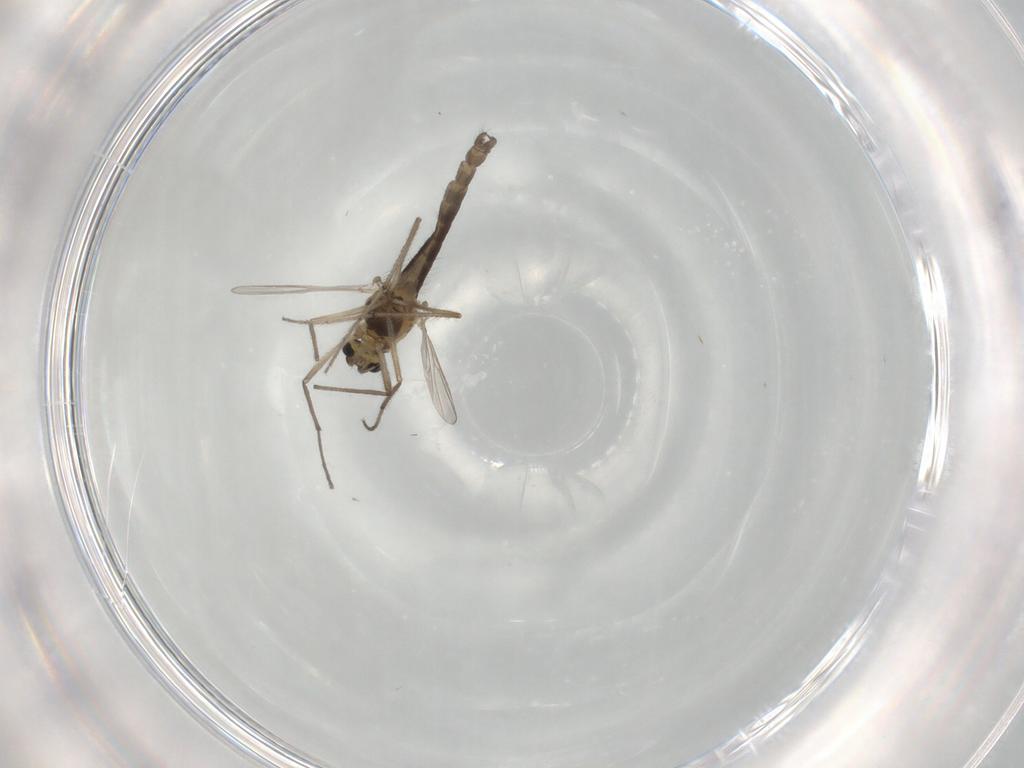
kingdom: Animalia
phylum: Arthropoda
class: Insecta
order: Diptera
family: Chironomidae
